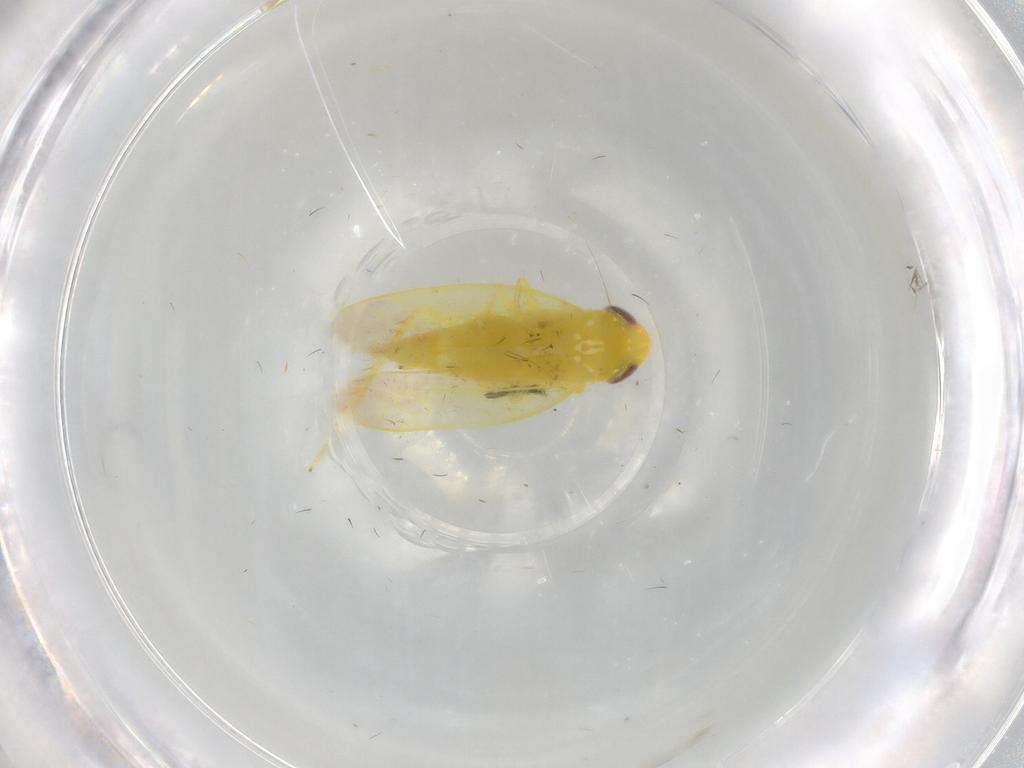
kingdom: Animalia
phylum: Arthropoda
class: Insecta
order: Hemiptera
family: Cicadellidae
